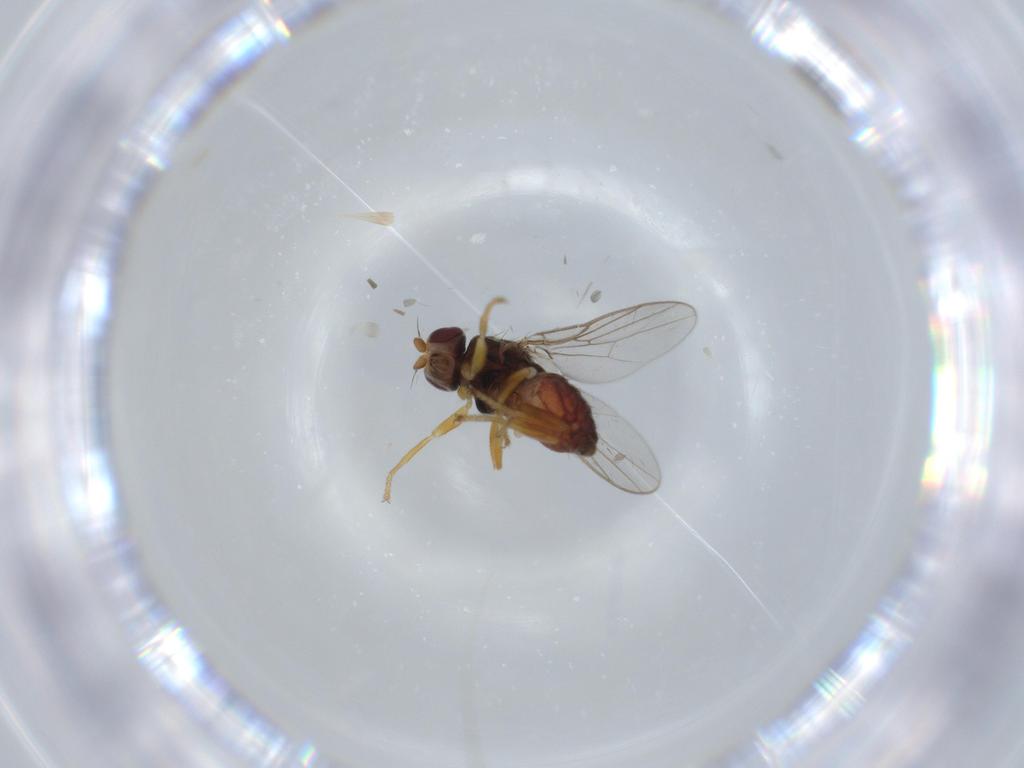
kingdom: Animalia
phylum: Arthropoda
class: Insecta
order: Diptera
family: Chloropidae
